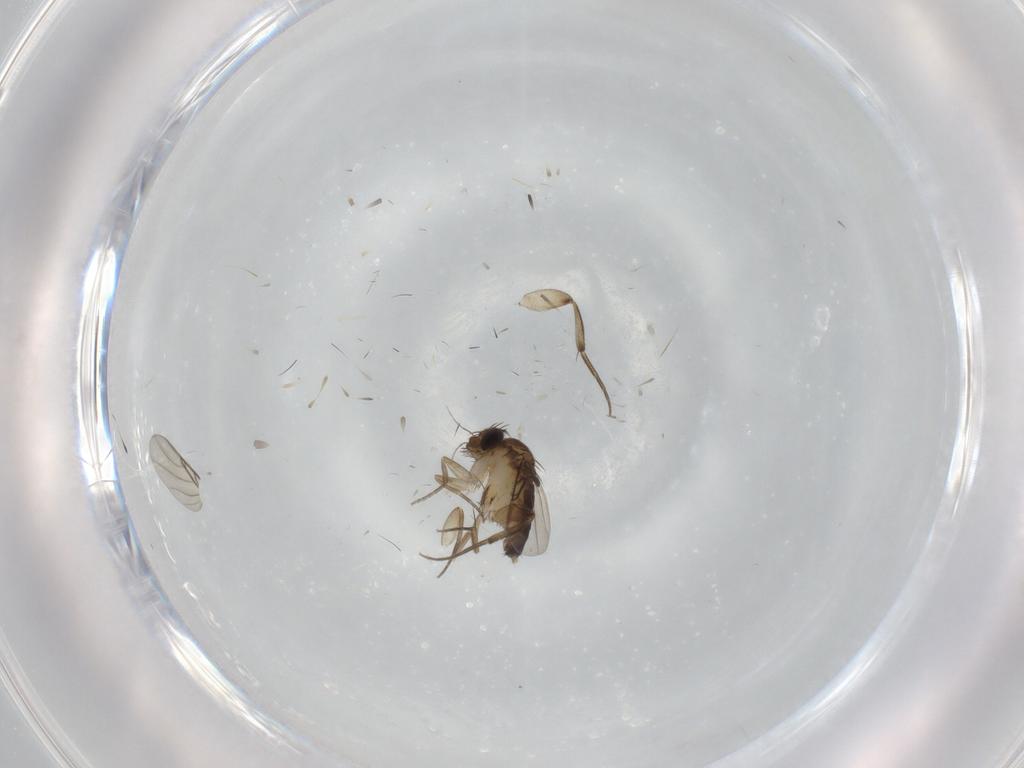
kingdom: Animalia
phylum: Arthropoda
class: Insecta
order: Diptera
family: Phoridae
